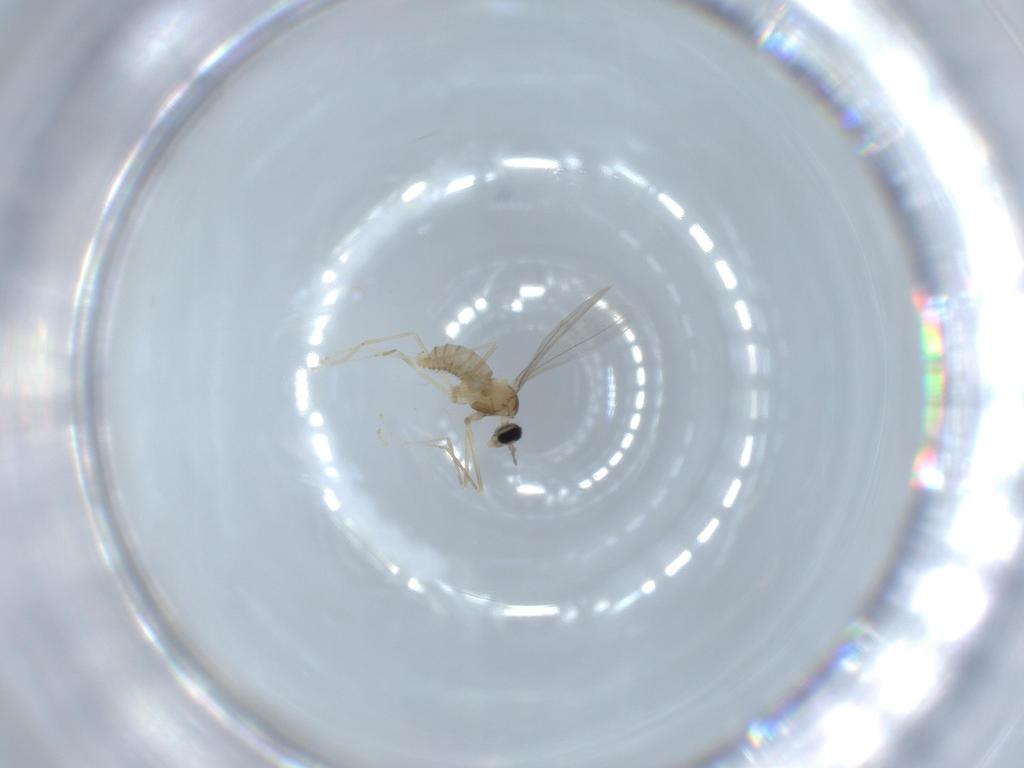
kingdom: Animalia
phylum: Arthropoda
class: Insecta
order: Diptera
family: Cecidomyiidae
